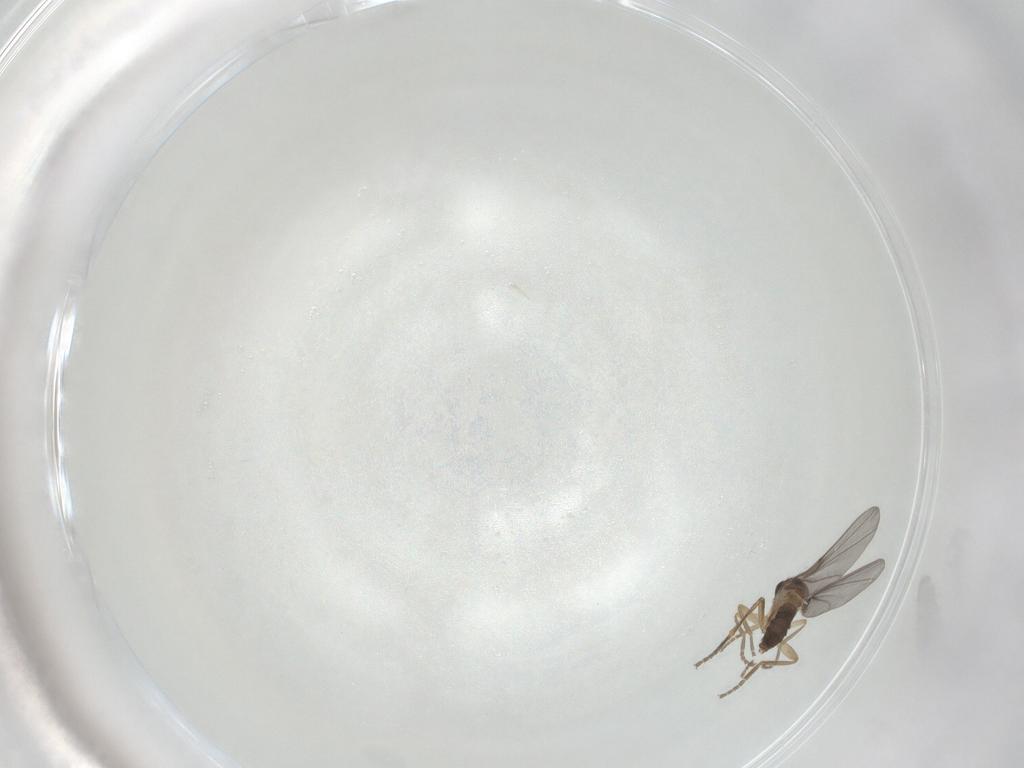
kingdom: Animalia
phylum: Arthropoda
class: Insecta
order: Diptera
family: Phoridae
